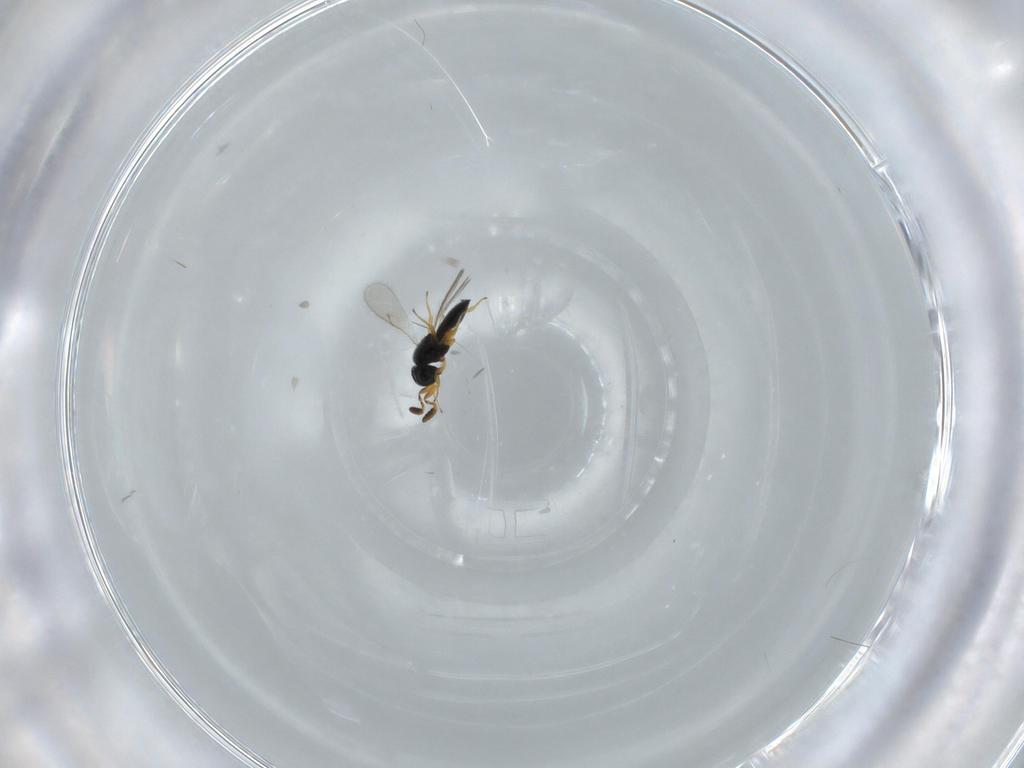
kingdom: Animalia
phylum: Arthropoda
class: Insecta
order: Hymenoptera
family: Scelionidae
